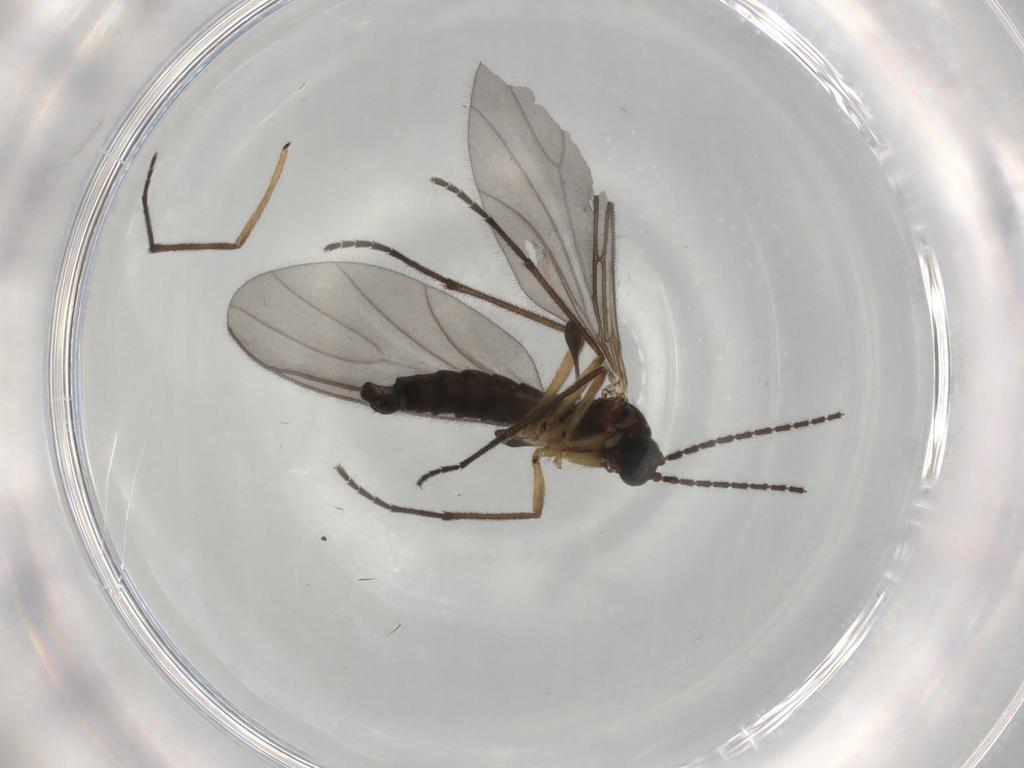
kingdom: Animalia
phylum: Arthropoda
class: Insecta
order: Diptera
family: Sciaridae
